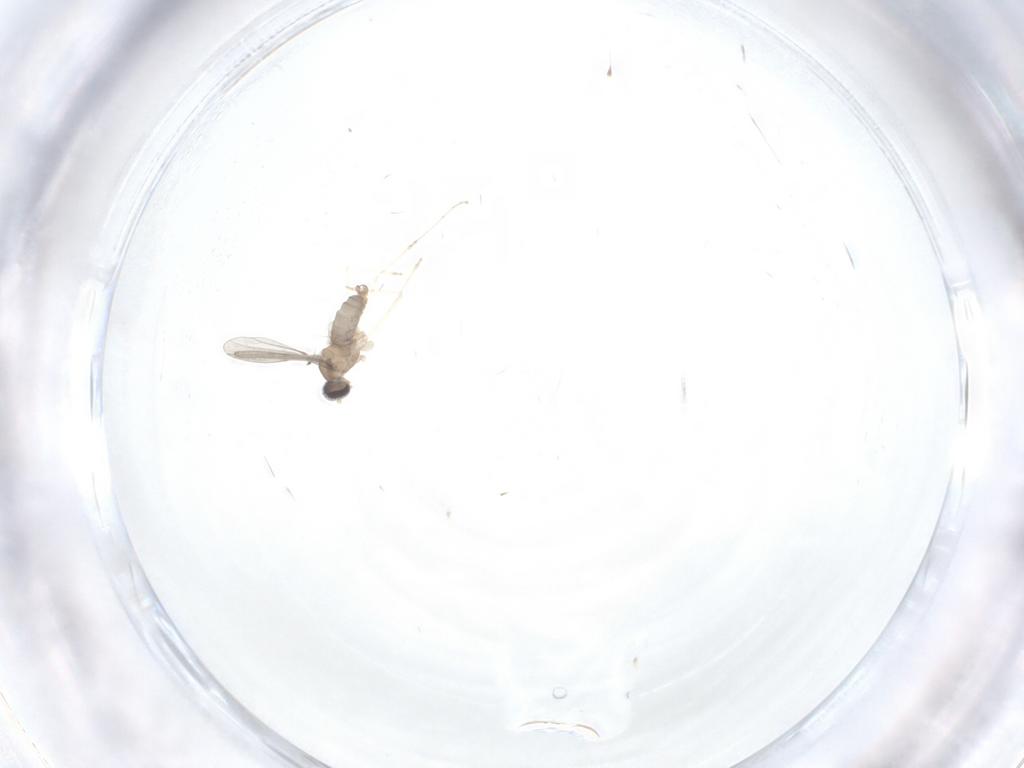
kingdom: Animalia
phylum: Arthropoda
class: Insecta
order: Diptera
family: Cecidomyiidae
